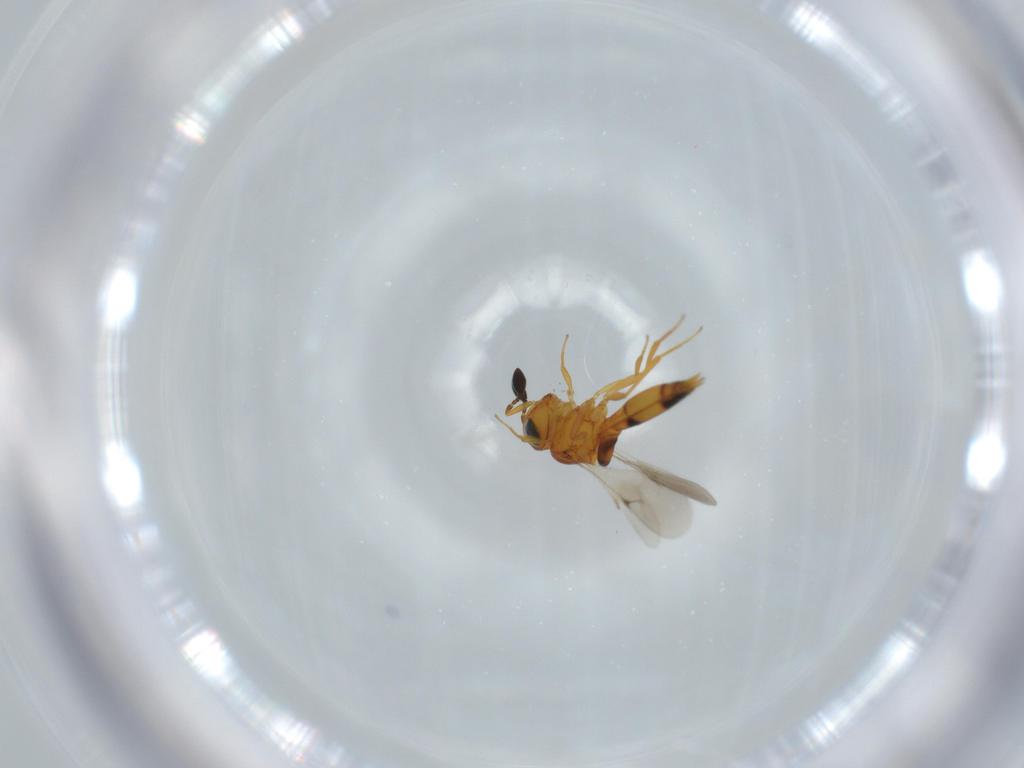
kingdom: Animalia
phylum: Arthropoda
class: Insecta
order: Hymenoptera
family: Scelionidae
